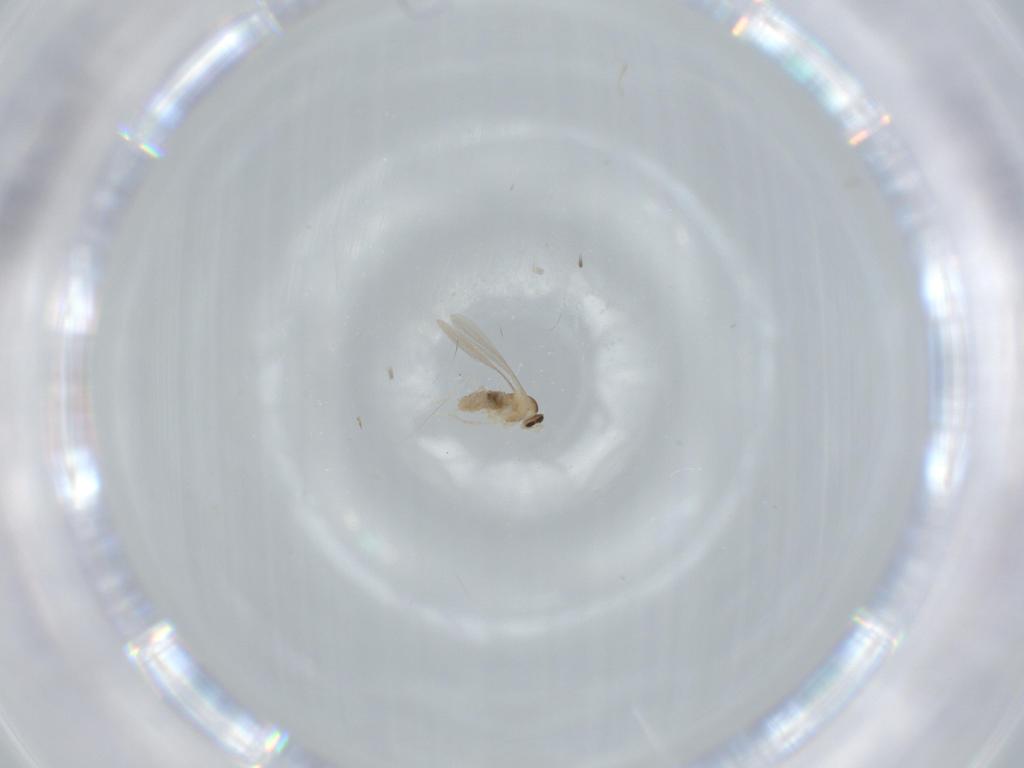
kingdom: Animalia
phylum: Arthropoda
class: Insecta
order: Diptera
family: Cecidomyiidae
